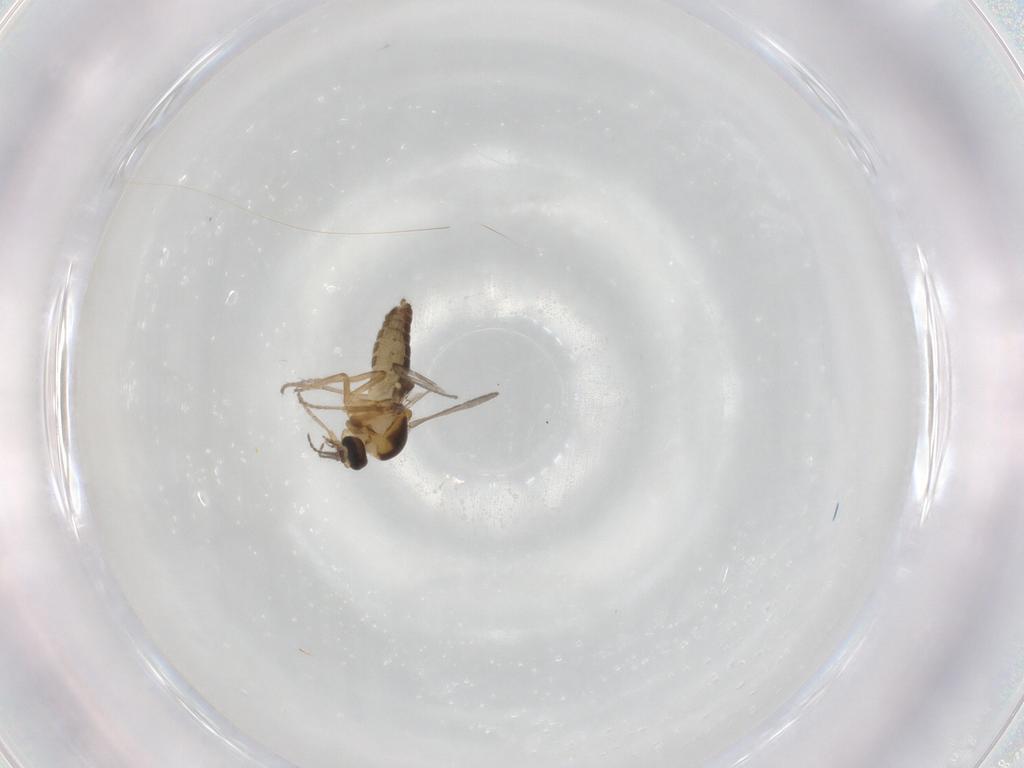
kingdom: Animalia
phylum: Arthropoda
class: Insecta
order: Diptera
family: Ceratopogonidae
